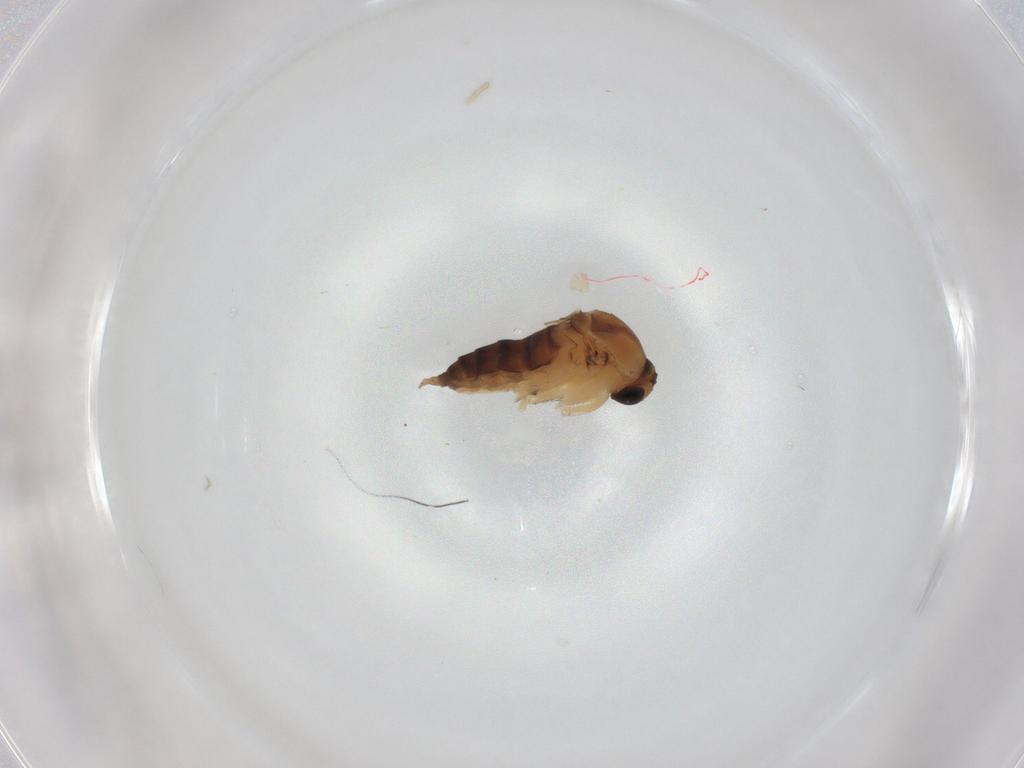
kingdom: Animalia
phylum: Arthropoda
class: Insecta
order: Diptera
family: Phoridae
